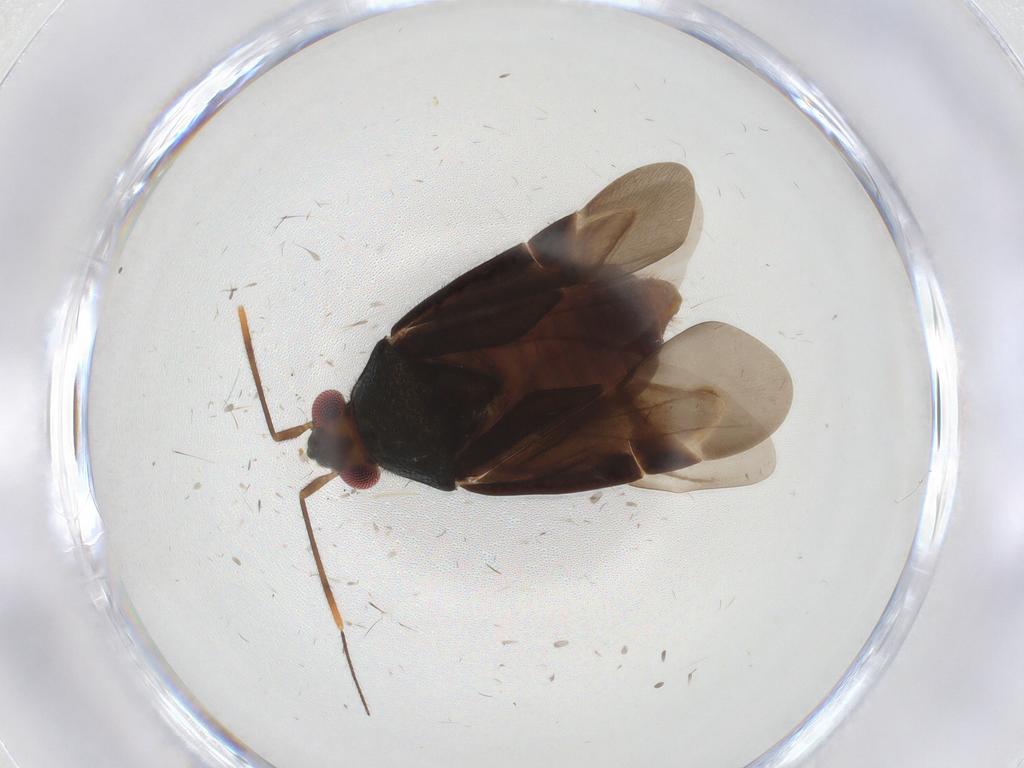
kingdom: Animalia
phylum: Arthropoda
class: Insecta
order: Hemiptera
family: Miridae
